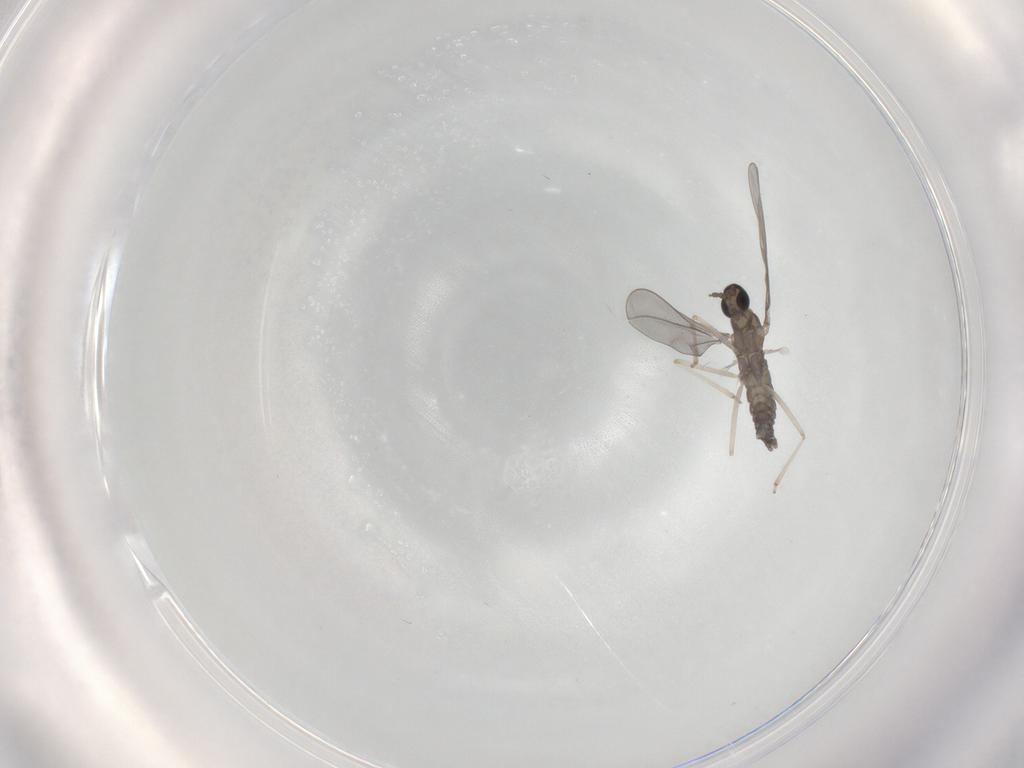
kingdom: Animalia
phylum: Arthropoda
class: Insecta
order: Diptera
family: Sciaridae
